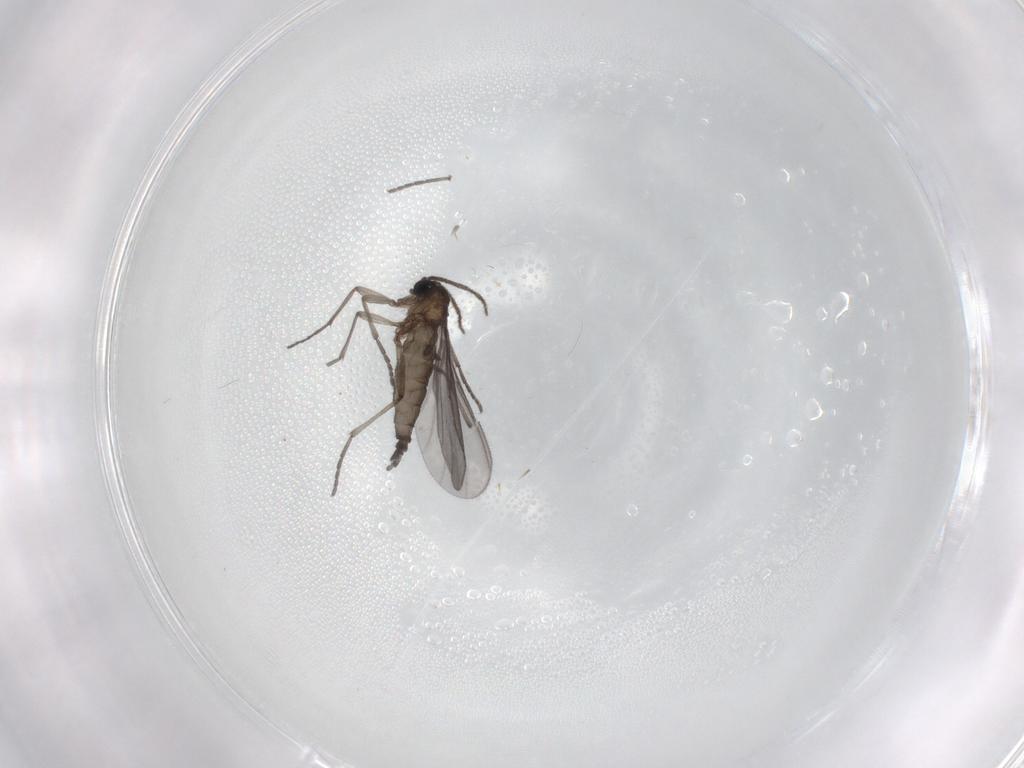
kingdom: Animalia
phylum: Arthropoda
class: Insecta
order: Diptera
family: Sciaridae
